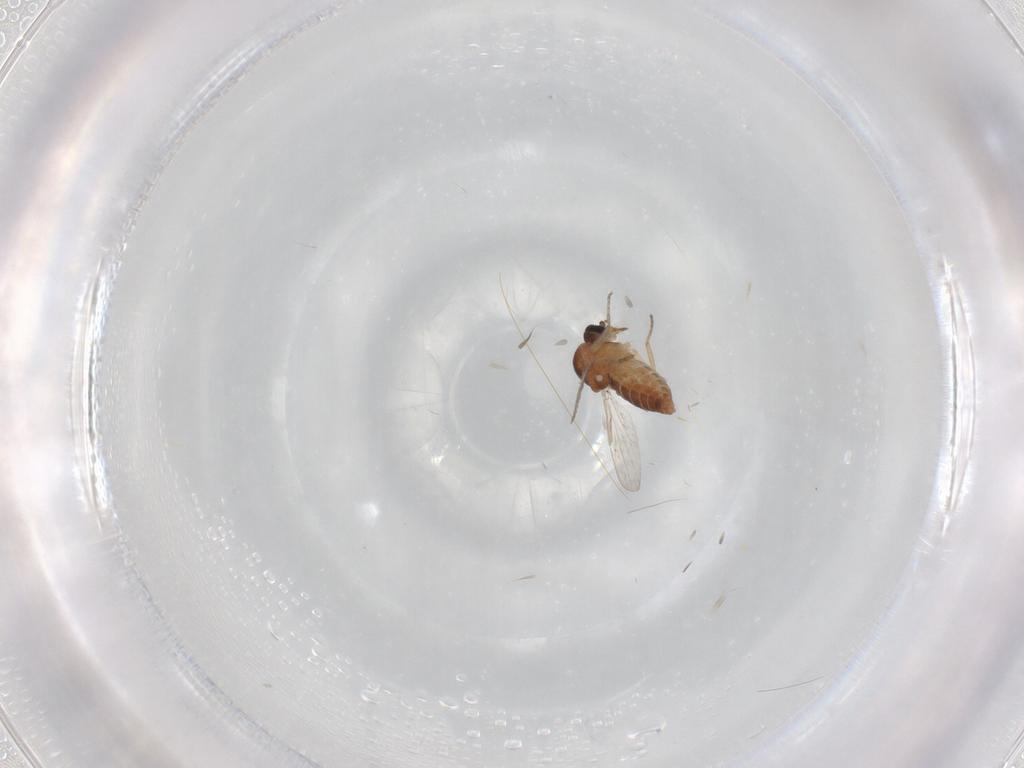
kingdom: Animalia
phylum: Arthropoda
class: Insecta
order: Diptera
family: Ceratopogonidae
